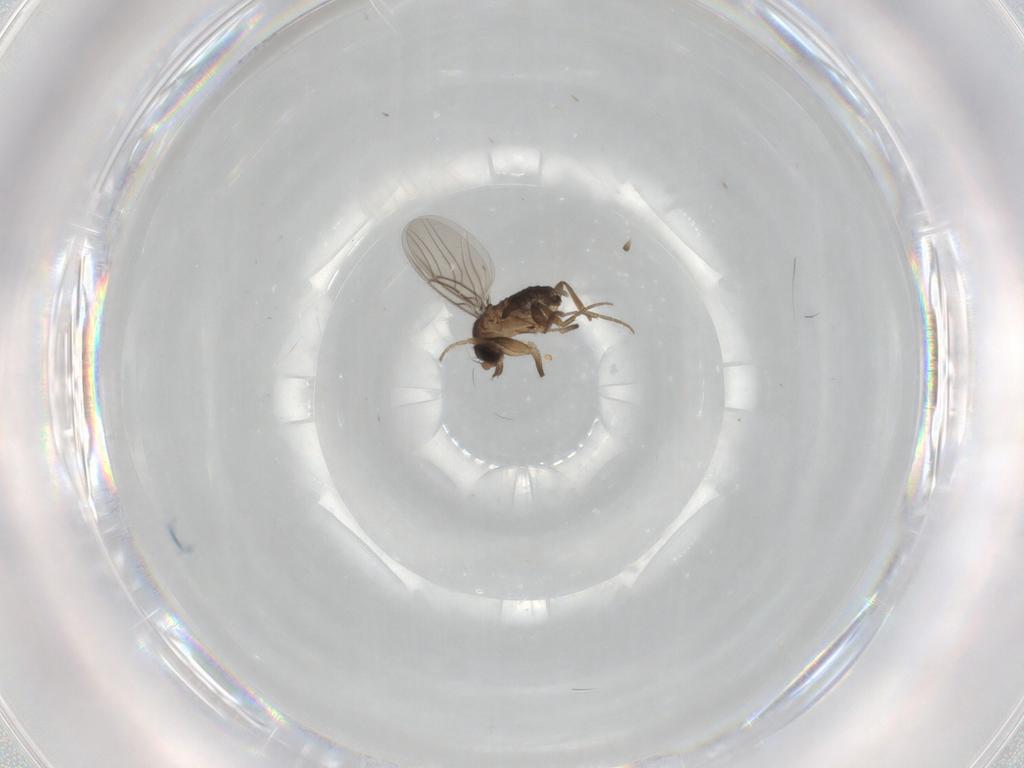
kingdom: Animalia
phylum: Arthropoda
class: Insecta
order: Diptera
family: Phoridae
